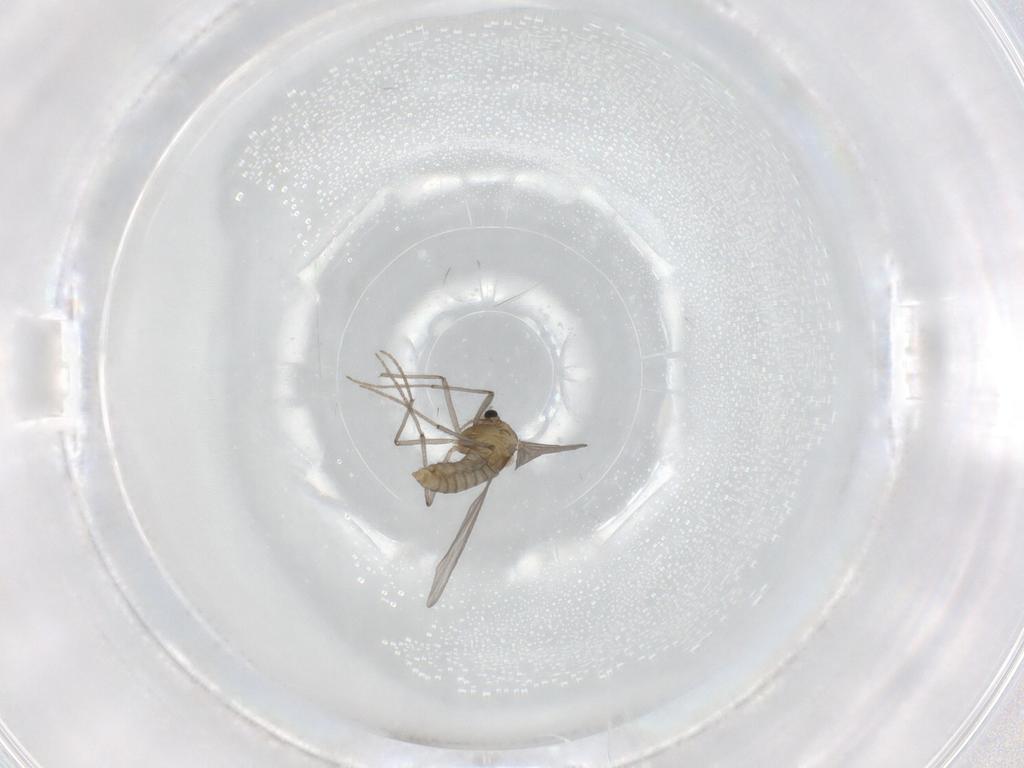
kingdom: Animalia
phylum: Arthropoda
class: Insecta
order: Diptera
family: Chironomidae
